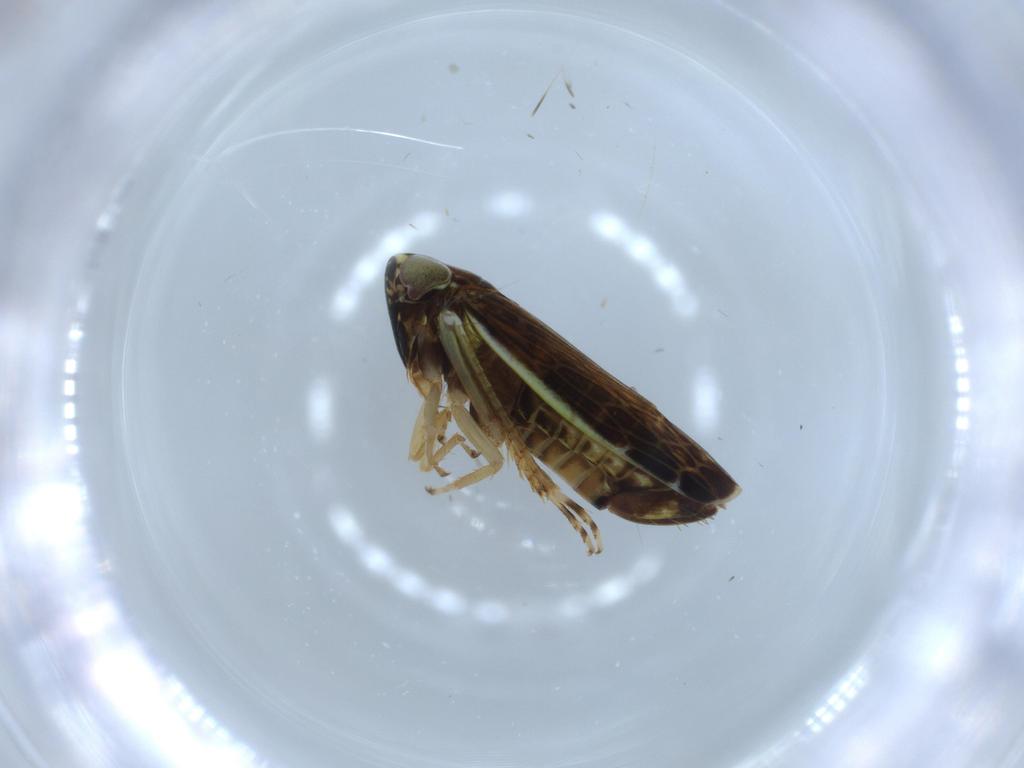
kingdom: Animalia
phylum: Arthropoda
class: Insecta
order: Hemiptera
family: Cicadellidae
